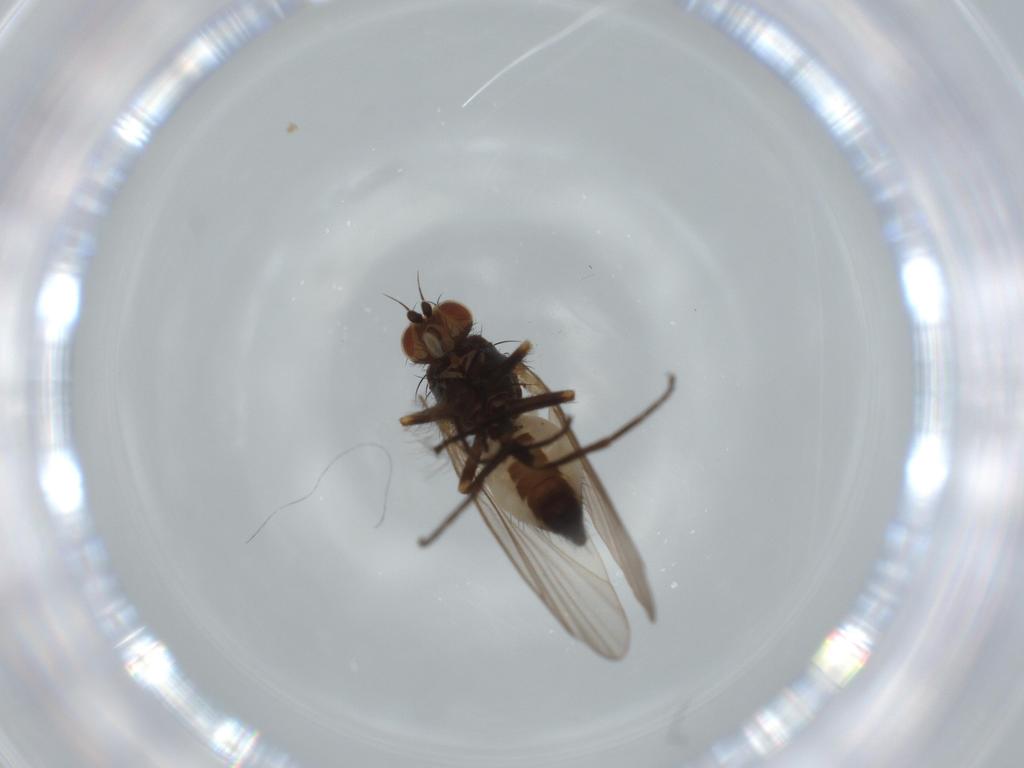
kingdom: Animalia
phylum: Arthropoda
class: Insecta
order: Diptera
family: Agromyzidae
